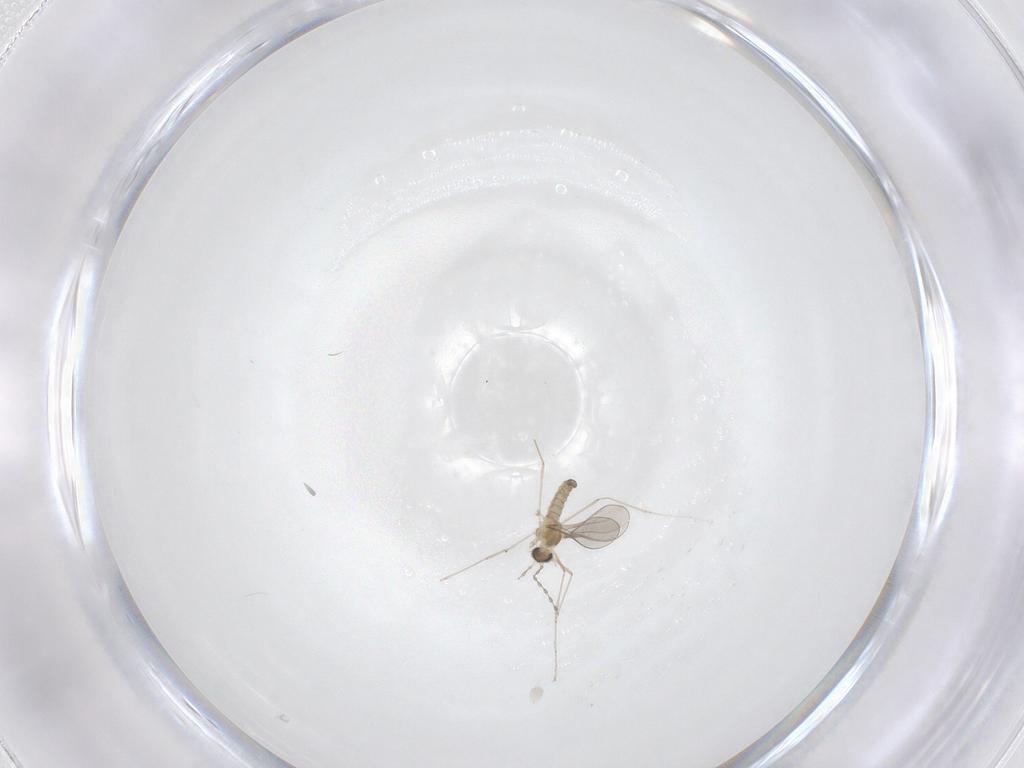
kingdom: Animalia
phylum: Arthropoda
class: Insecta
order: Diptera
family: Cecidomyiidae
